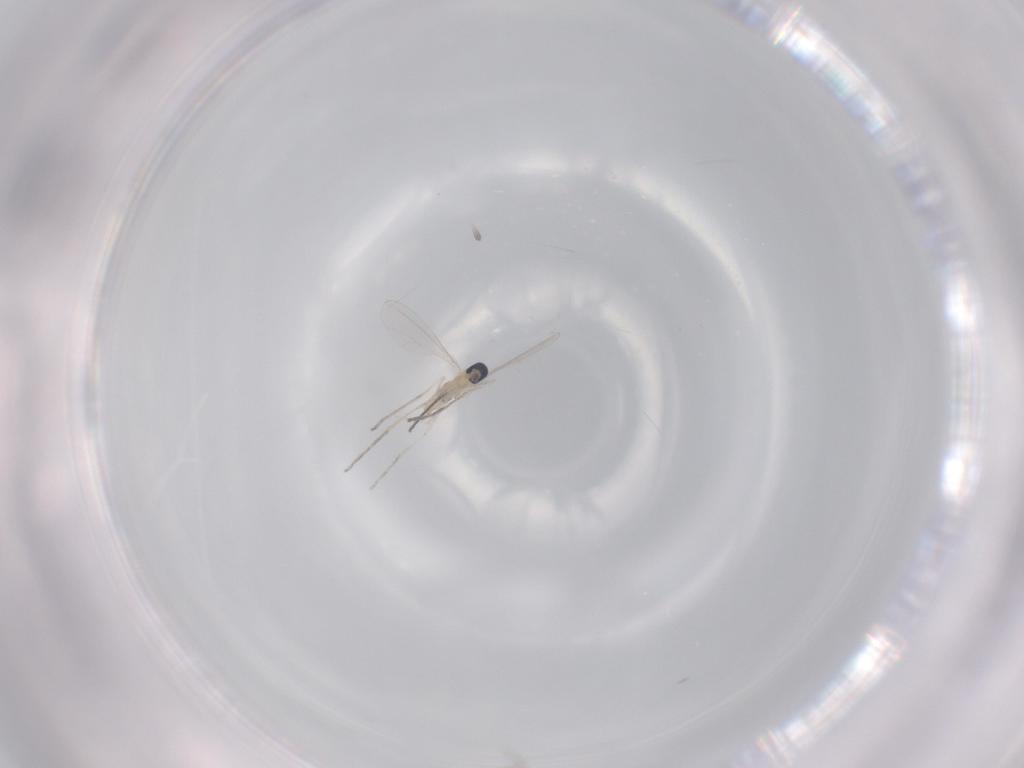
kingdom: Animalia
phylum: Arthropoda
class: Insecta
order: Diptera
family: Cecidomyiidae
